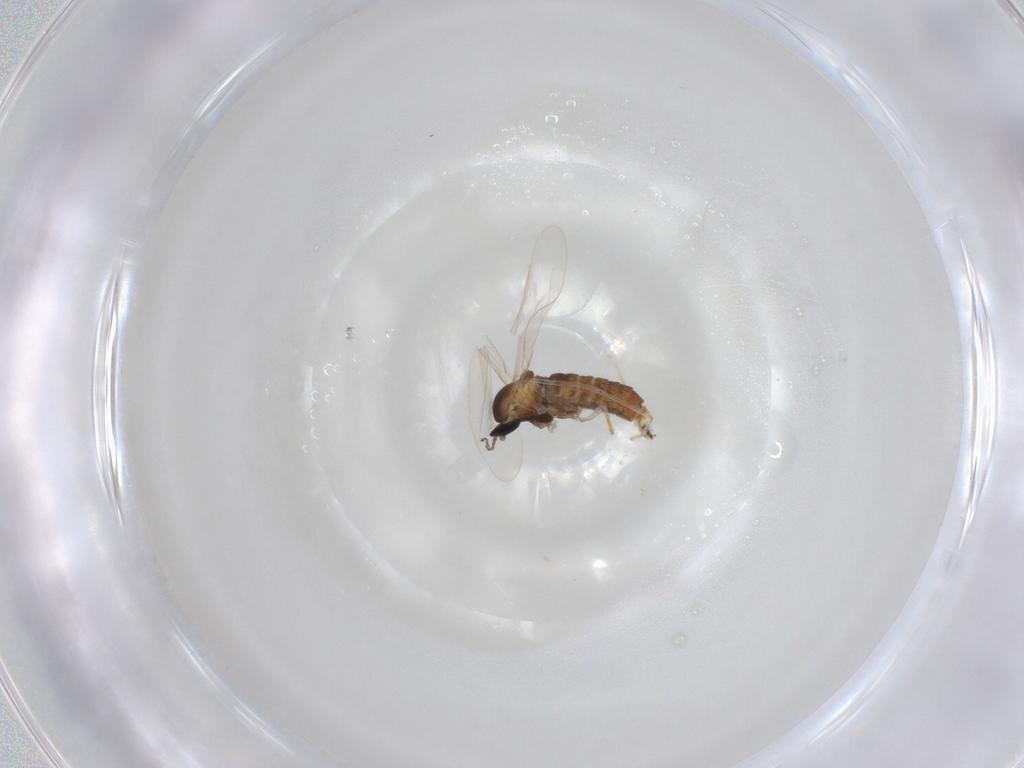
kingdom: Animalia
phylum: Arthropoda
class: Insecta
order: Diptera
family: Cecidomyiidae
